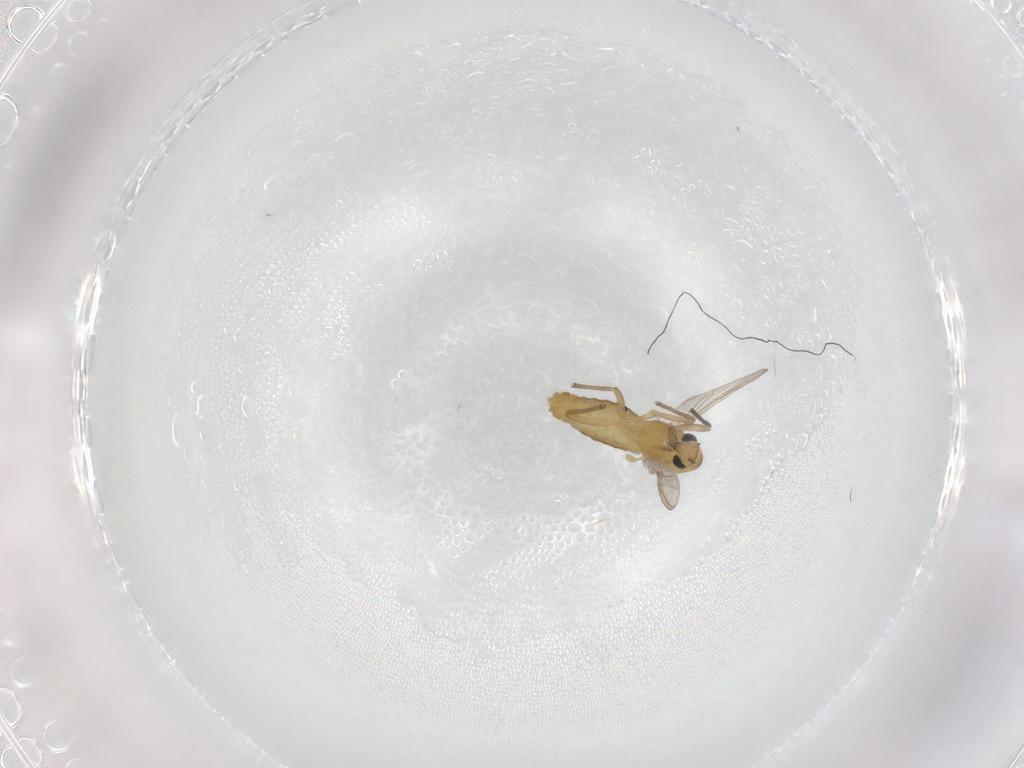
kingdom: Animalia
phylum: Arthropoda
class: Insecta
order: Diptera
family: Chironomidae
